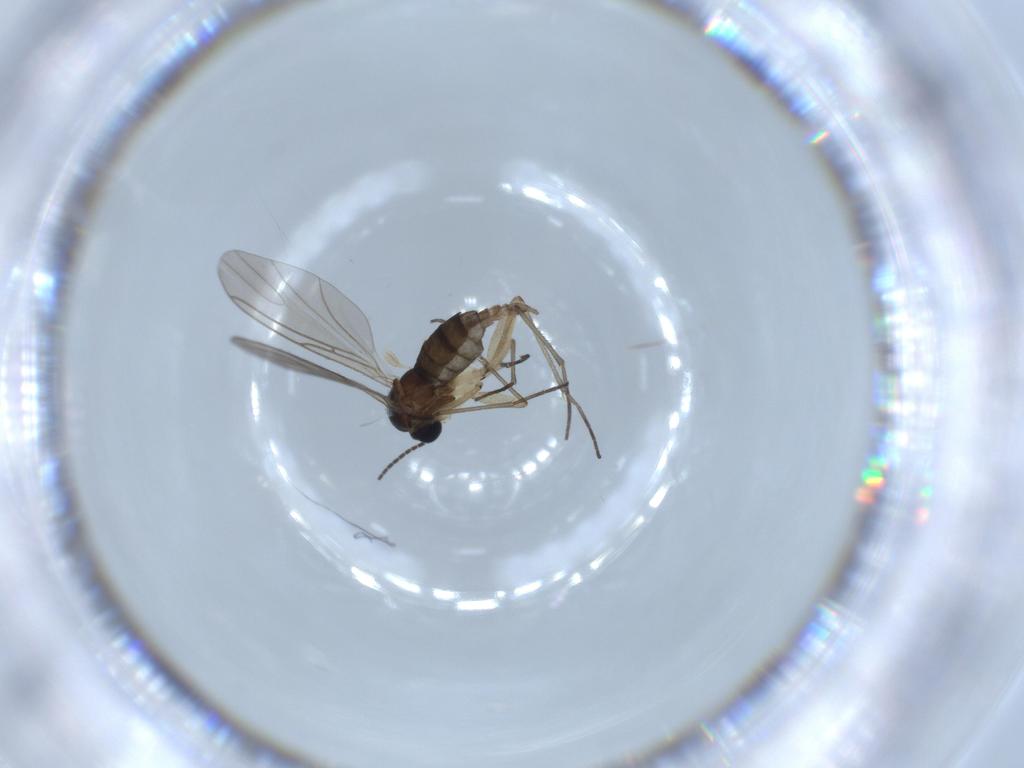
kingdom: Animalia
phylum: Arthropoda
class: Insecta
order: Diptera
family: Sciaridae
